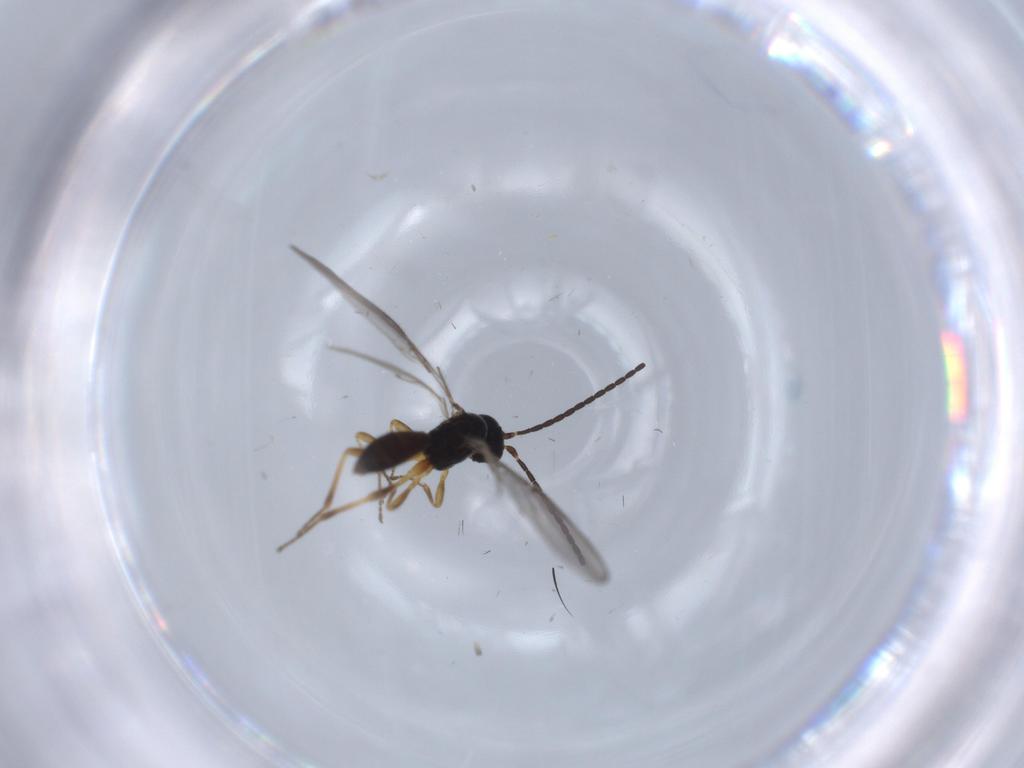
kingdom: Animalia
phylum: Arthropoda
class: Insecta
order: Hymenoptera
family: Braconidae
